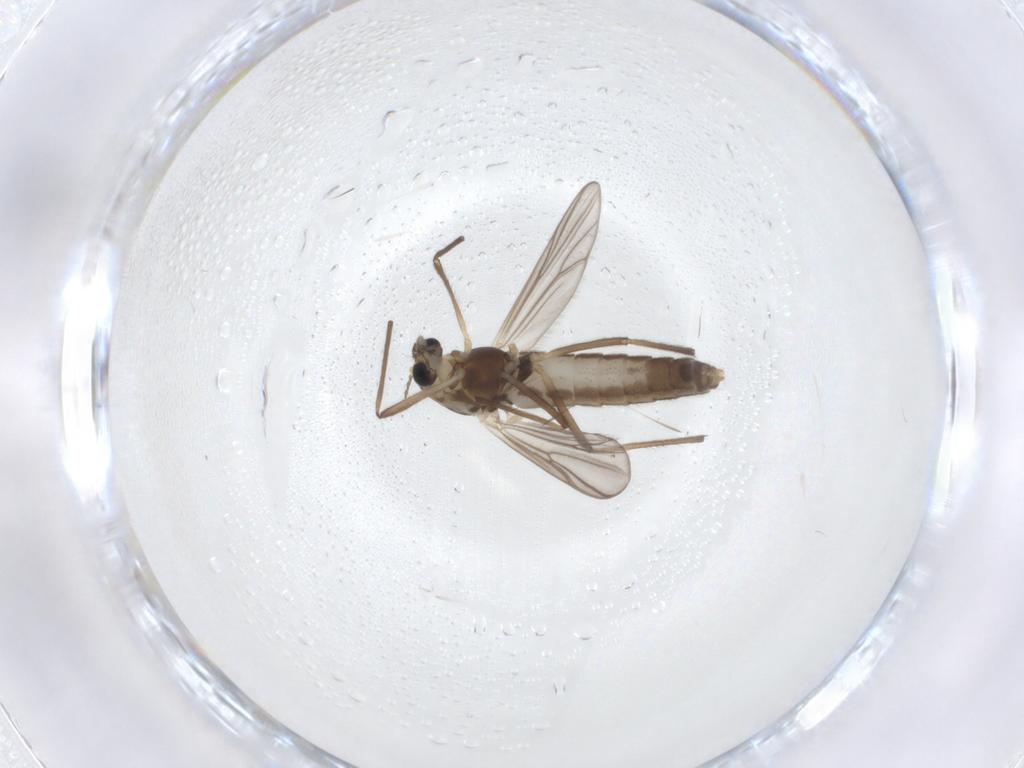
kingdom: Animalia
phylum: Arthropoda
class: Insecta
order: Diptera
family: Chironomidae
